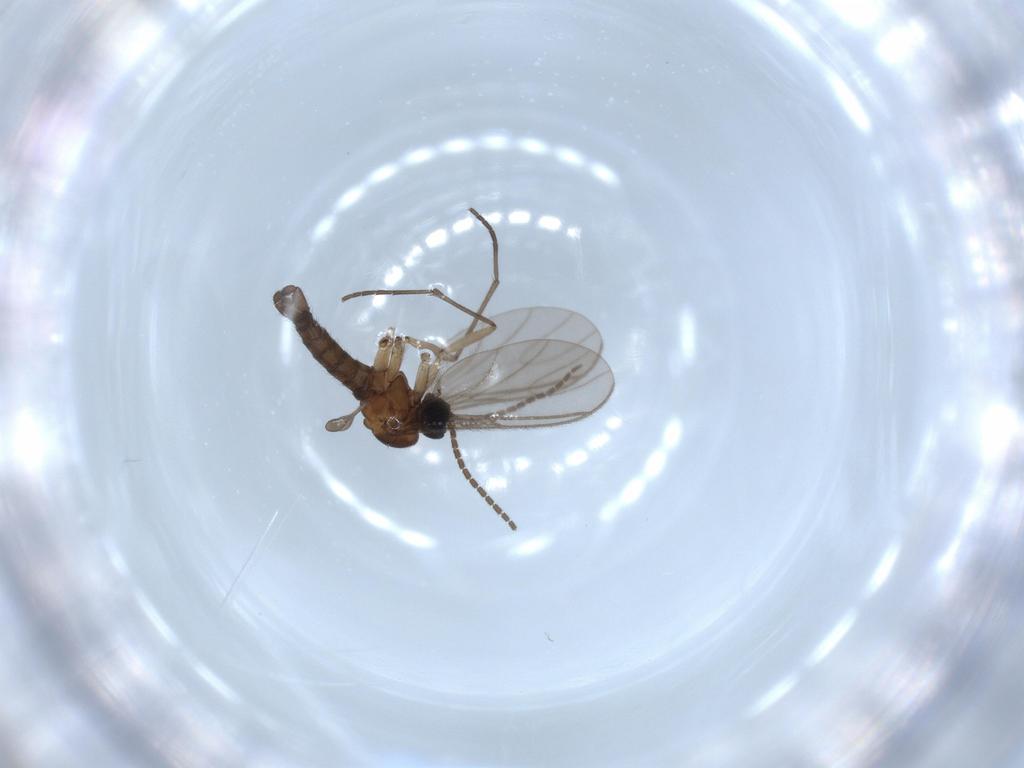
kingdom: Animalia
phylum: Arthropoda
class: Insecta
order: Diptera
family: Sciaridae
